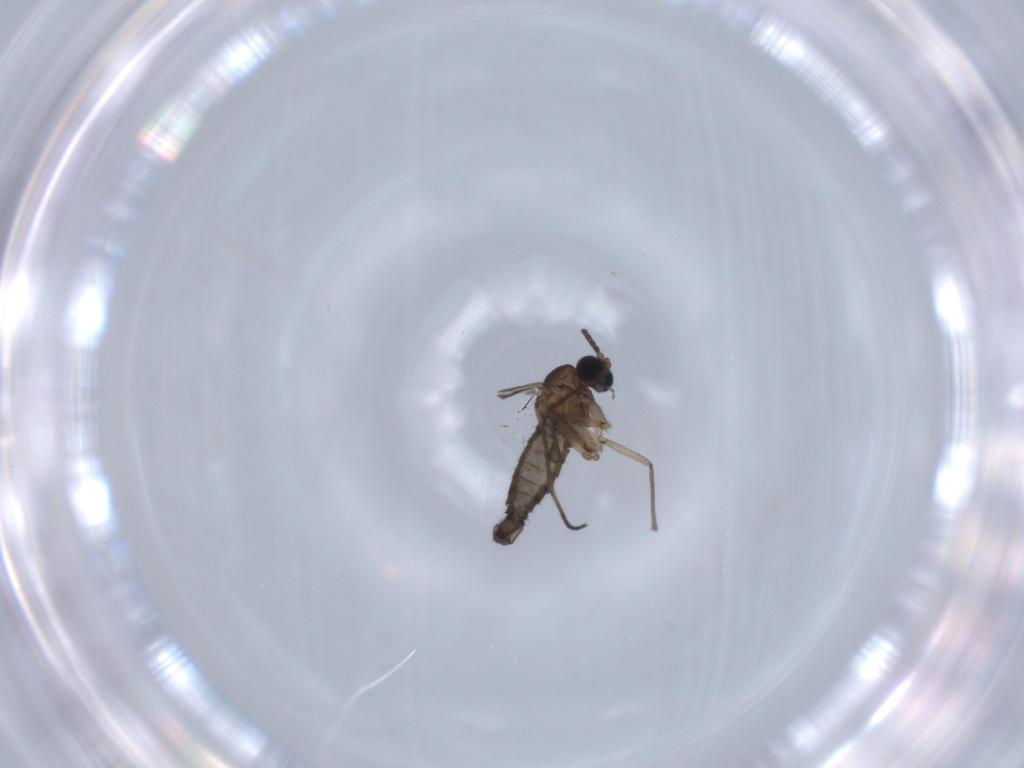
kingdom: Animalia
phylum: Arthropoda
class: Insecta
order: Diptera
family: Sciaridae
